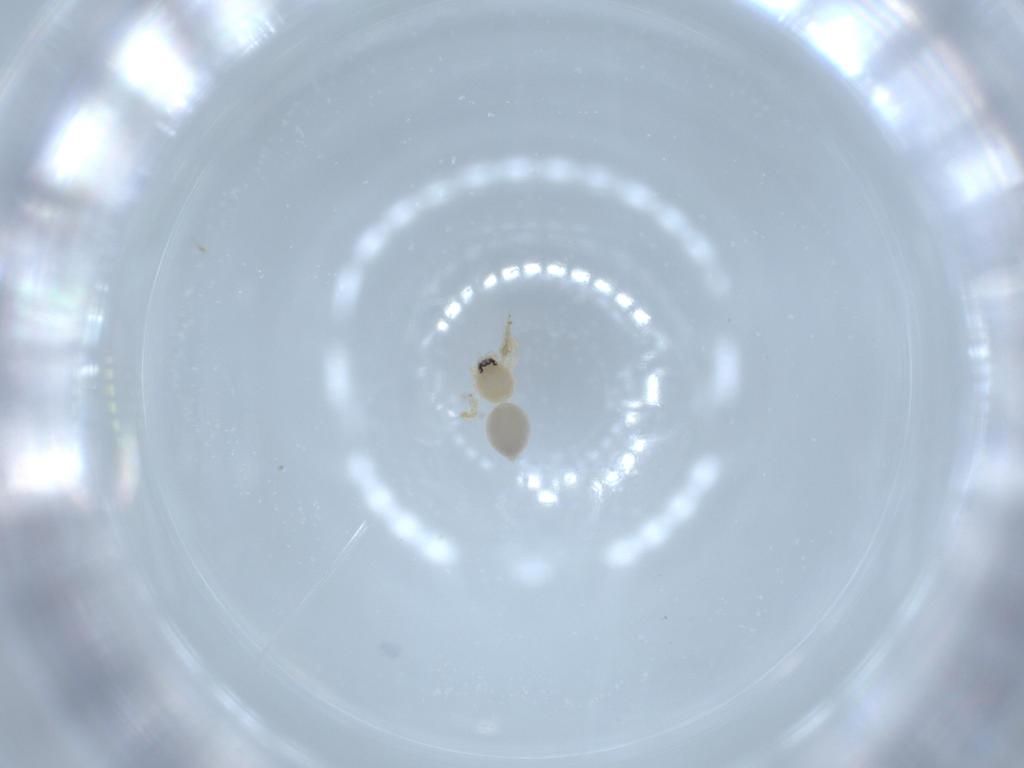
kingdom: Animalia
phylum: Arthropoda
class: Arachnida
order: Araneae
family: Oonopidae
